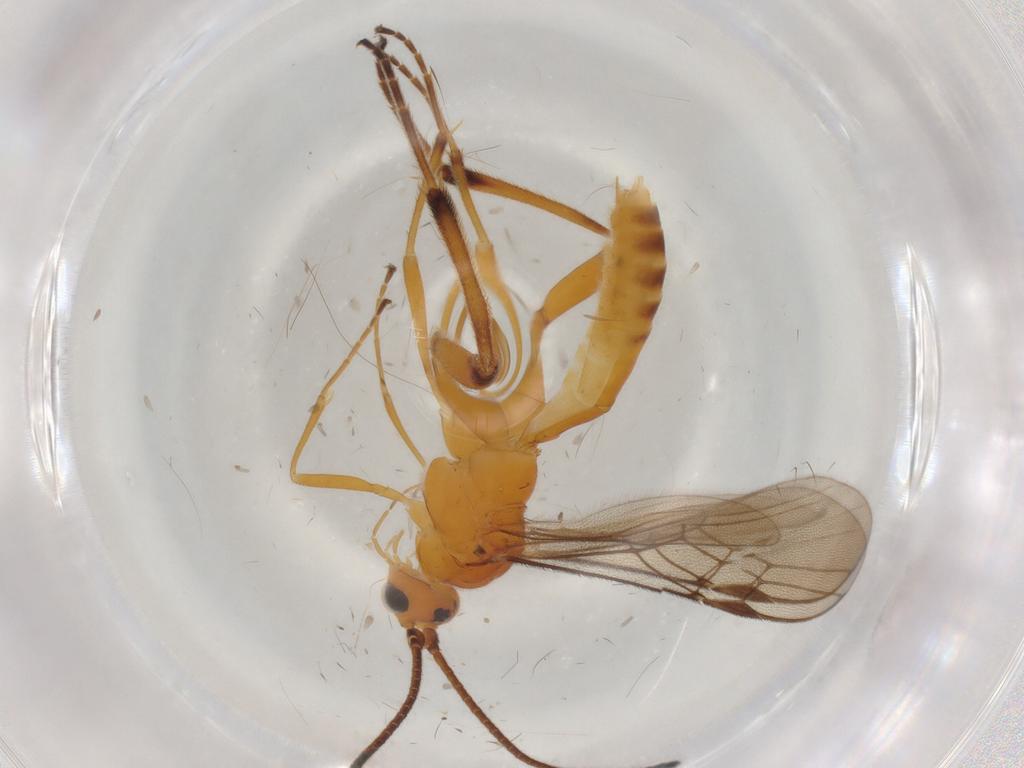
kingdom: Animalia
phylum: Arthropoda
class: Insecta
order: Hymenoptera
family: Braconidae
